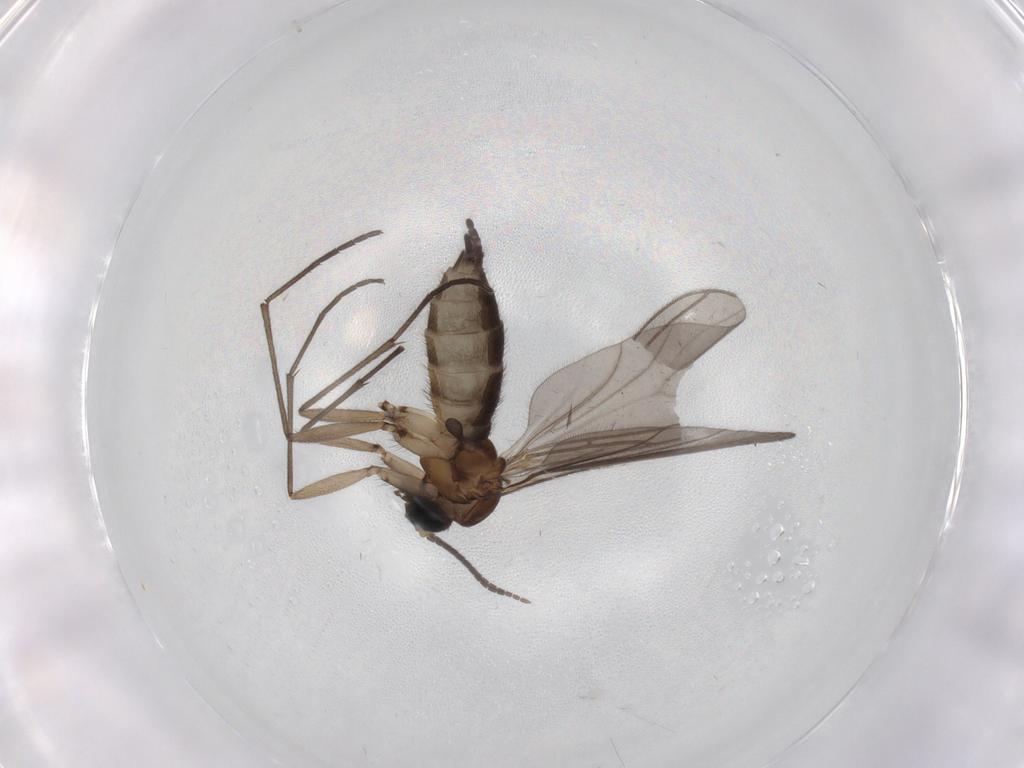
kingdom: Animalia
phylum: Arthropoda
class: Insecta
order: Diptera
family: Sciaridae
